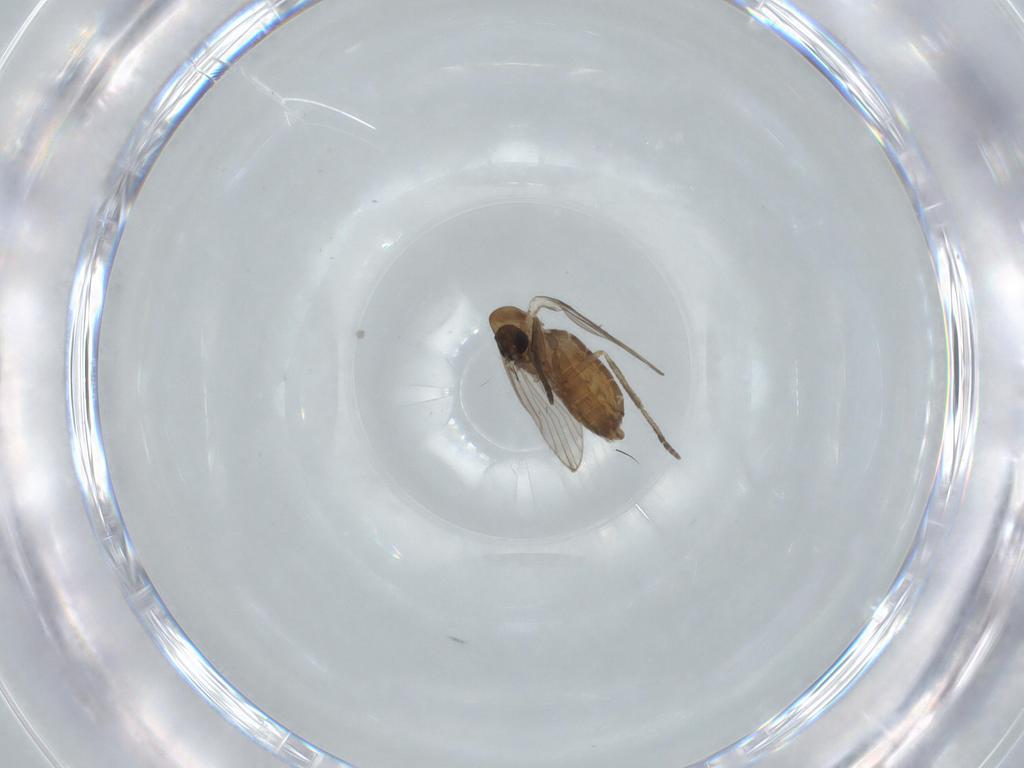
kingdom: Animalia
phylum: Arthropoda
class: Insecta
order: Diptera
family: Psychodidae
